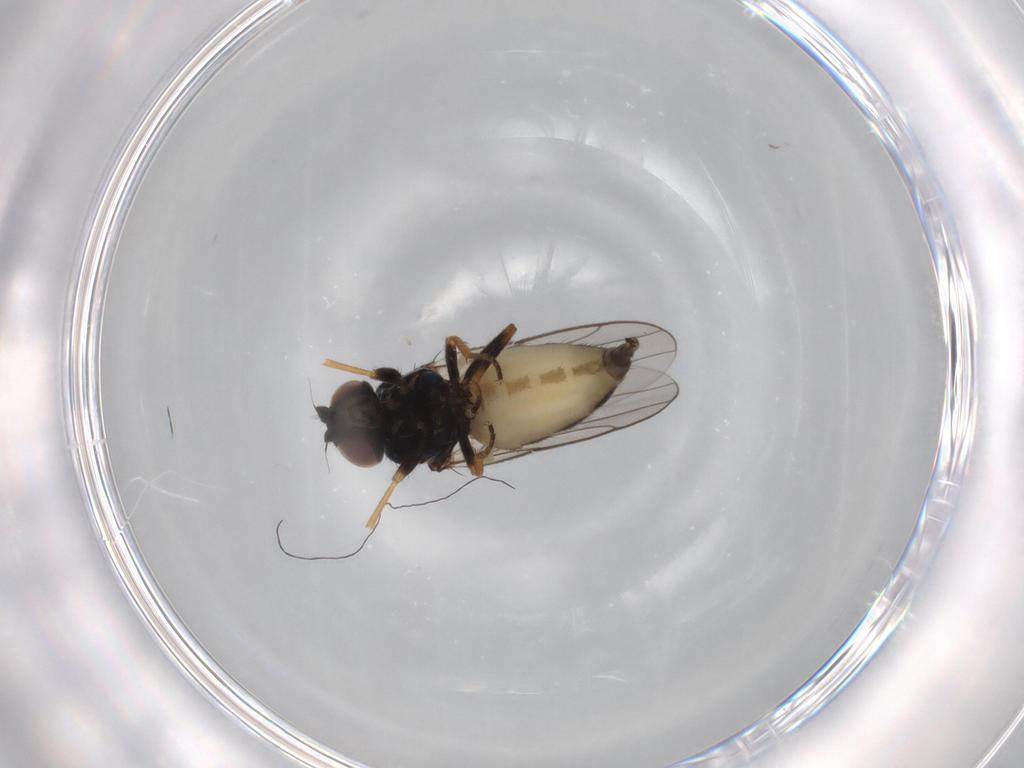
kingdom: Animalia
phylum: Arthropoda
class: Insecta
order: Diptera
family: Chloropidae
